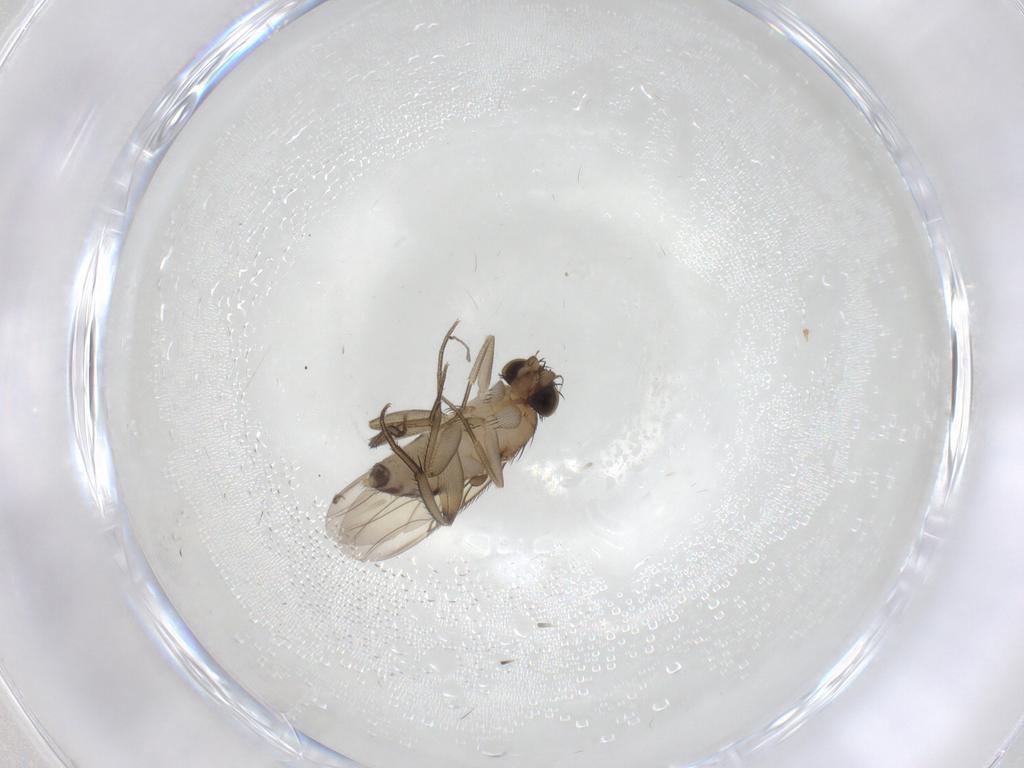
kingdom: Animalia
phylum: Arthropoda
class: Insecta
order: Diptera
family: Phoridae
